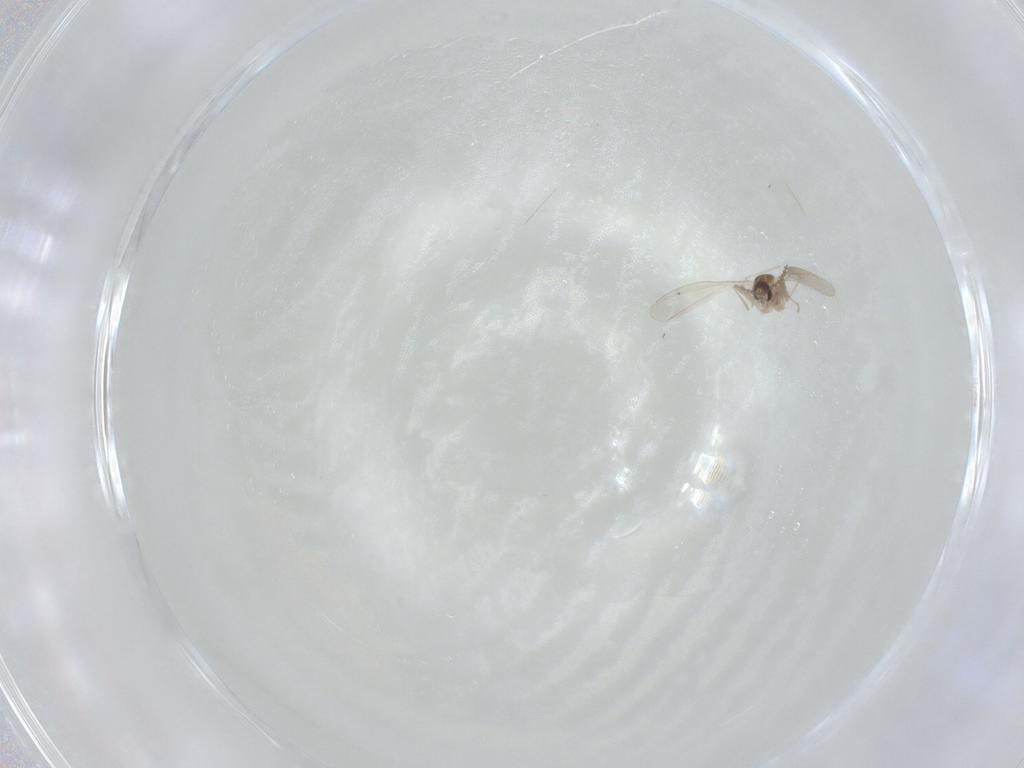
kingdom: Animalia
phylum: Arthropoda
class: Insecta
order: Diptera
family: Cecidomyiidae
